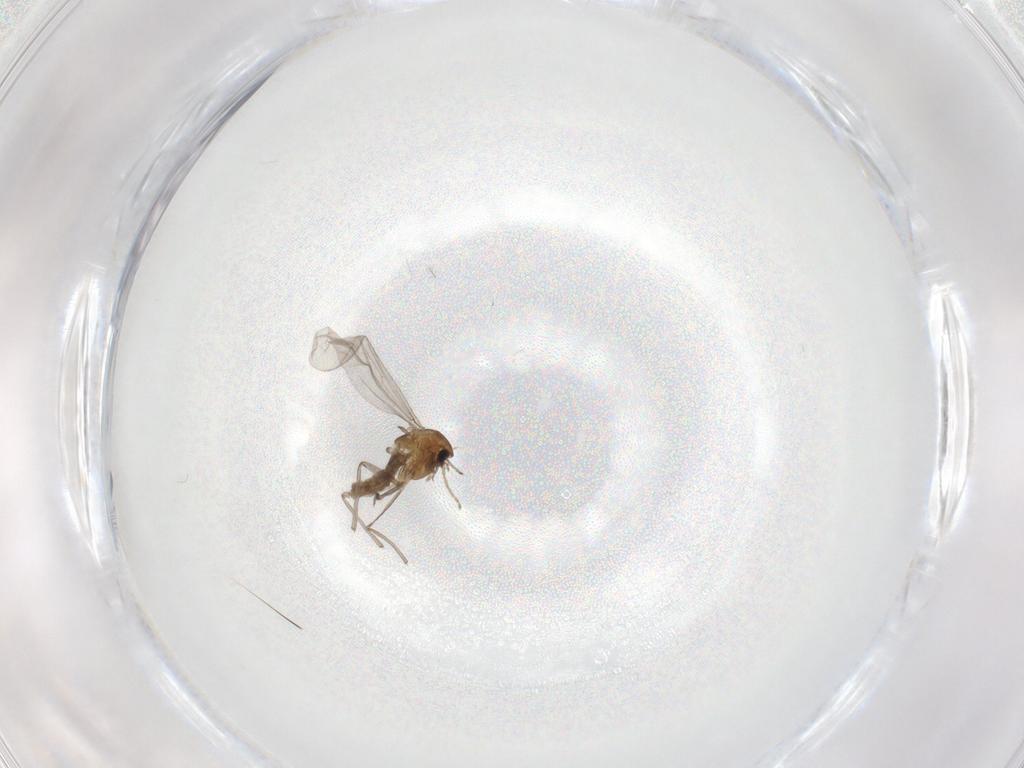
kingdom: Animalia
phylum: Arthropoda
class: Insecta
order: Diptera
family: Chironomidae
